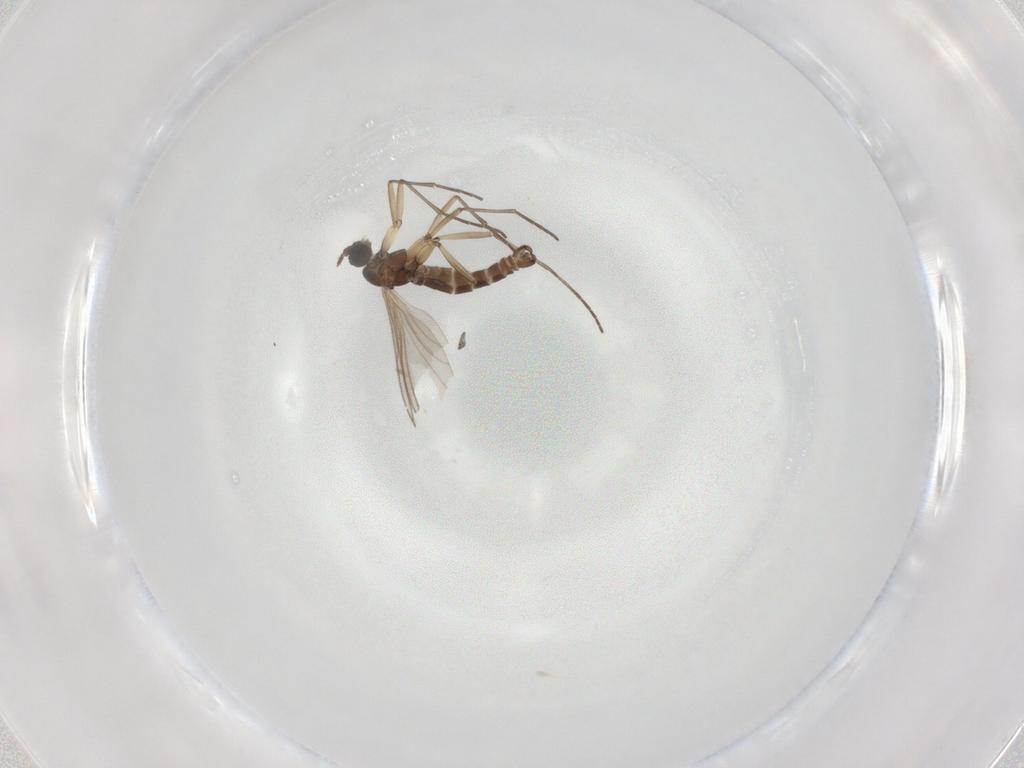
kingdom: Animalia
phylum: Arthropoda
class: Insecta
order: Diptera
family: Sciaridae
